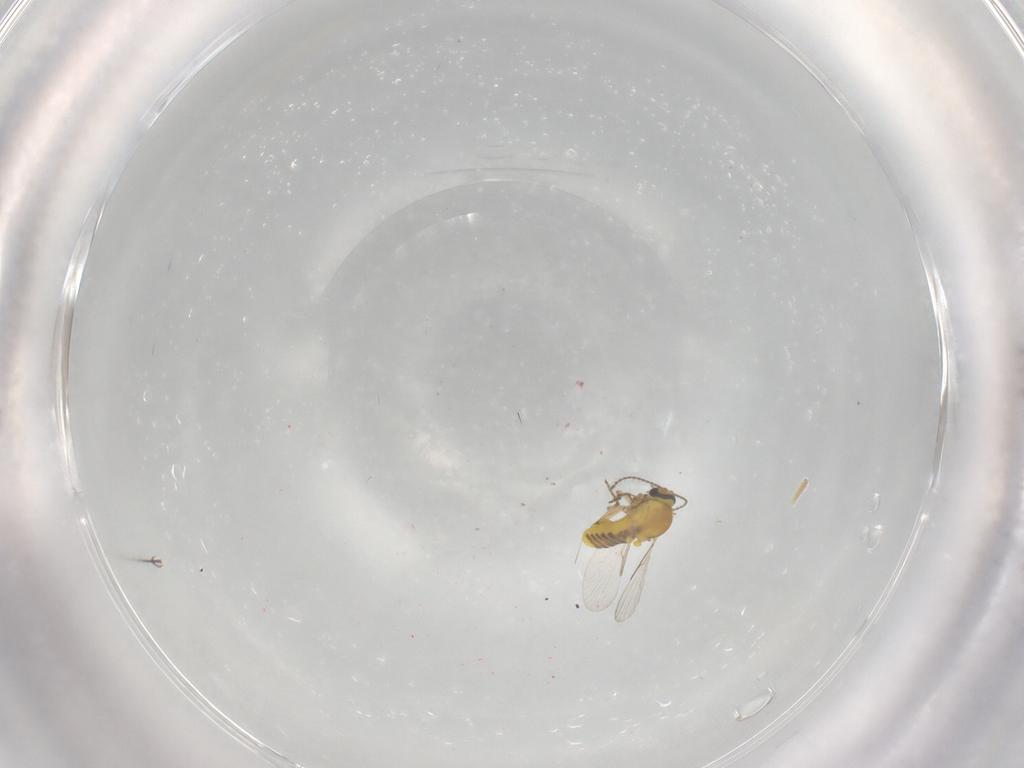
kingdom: Animalia
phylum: Arthropoda
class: Insecta
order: Diptera
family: Ceratopogonidae
